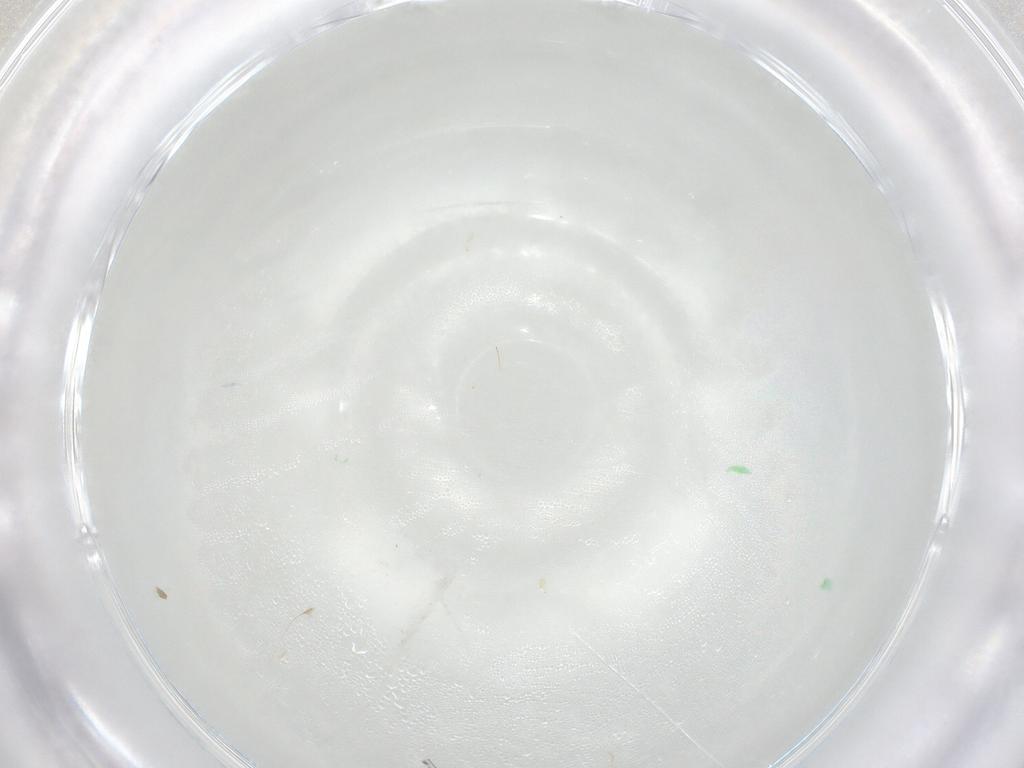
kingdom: Animalia
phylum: Arthropoda
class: Insecta
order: Diptera
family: Cecidomyiidae
